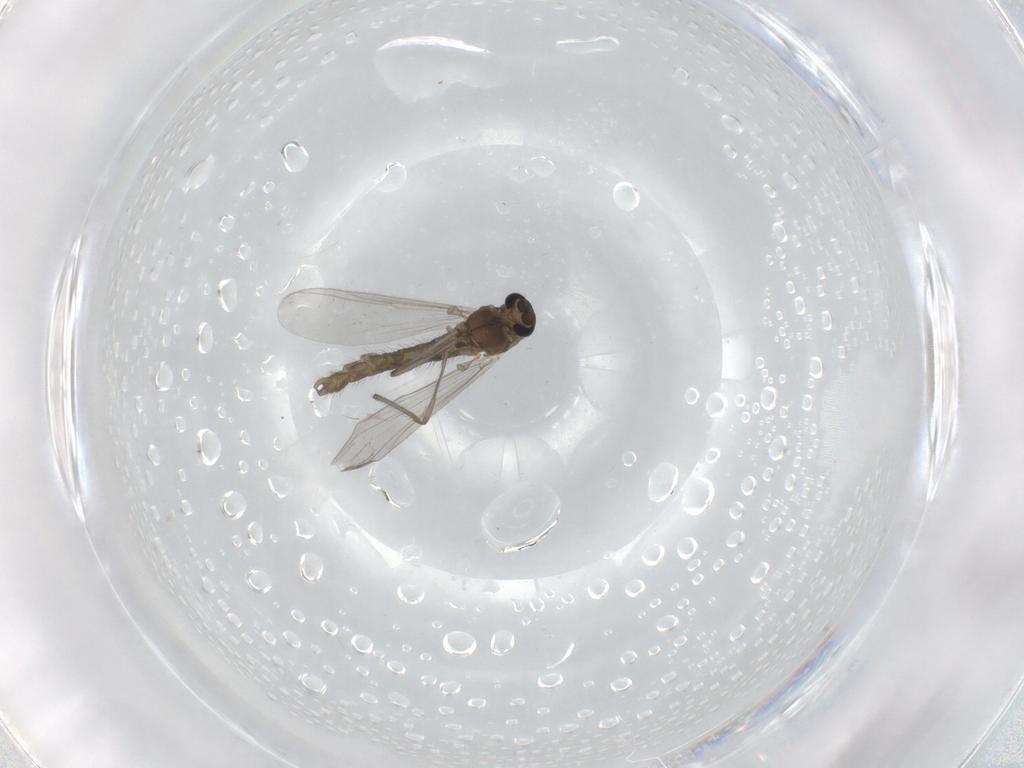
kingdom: Animalia
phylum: Arthropoda
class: Insecta
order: Diptera
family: Chironomidae
